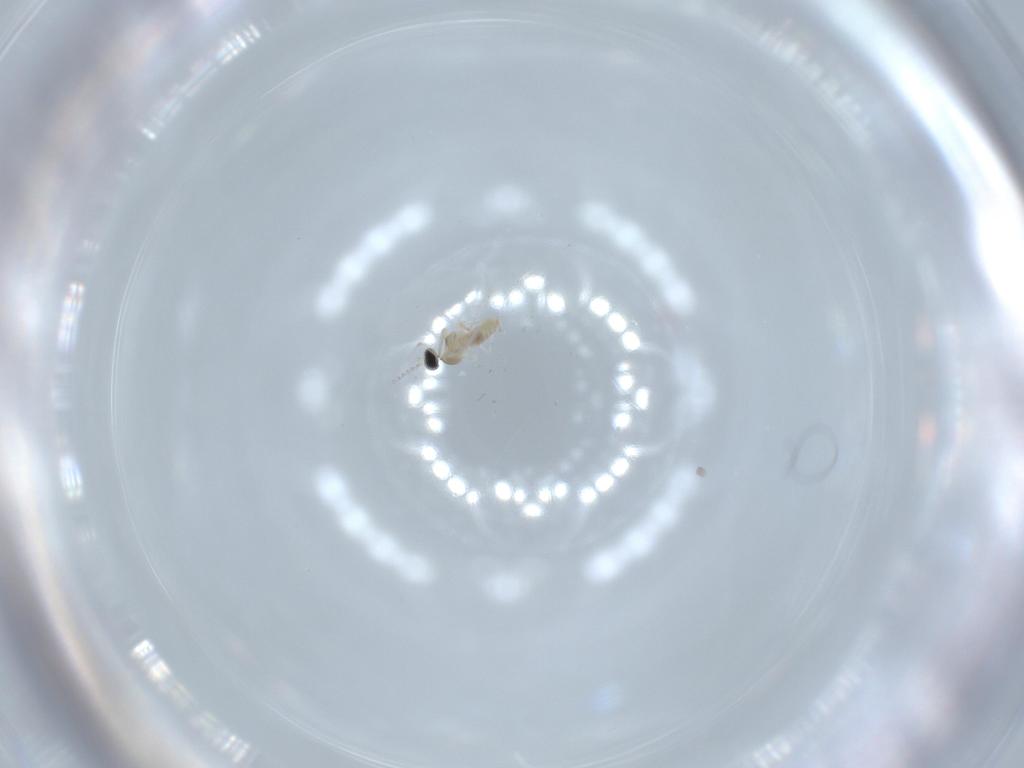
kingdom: Animalia
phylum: Arthropoda
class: Insecta
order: Diptera
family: Cecidomyiidae
